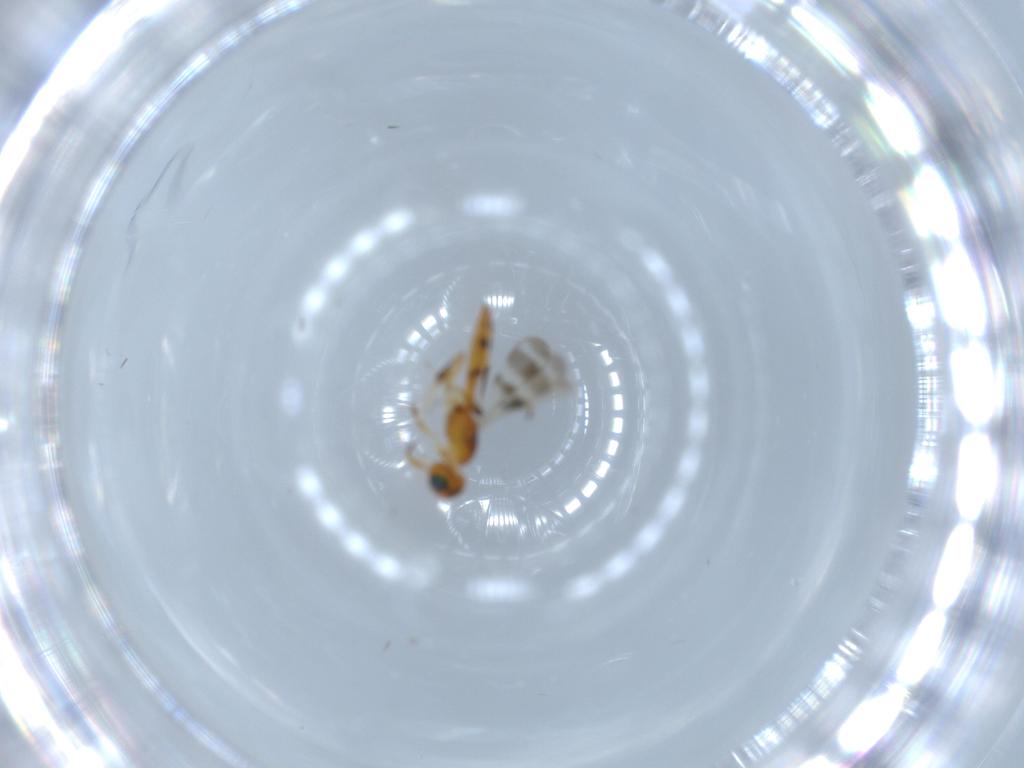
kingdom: Animalia
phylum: Arthropoda
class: Insecta
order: Hymenoptera
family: Scelionidae
